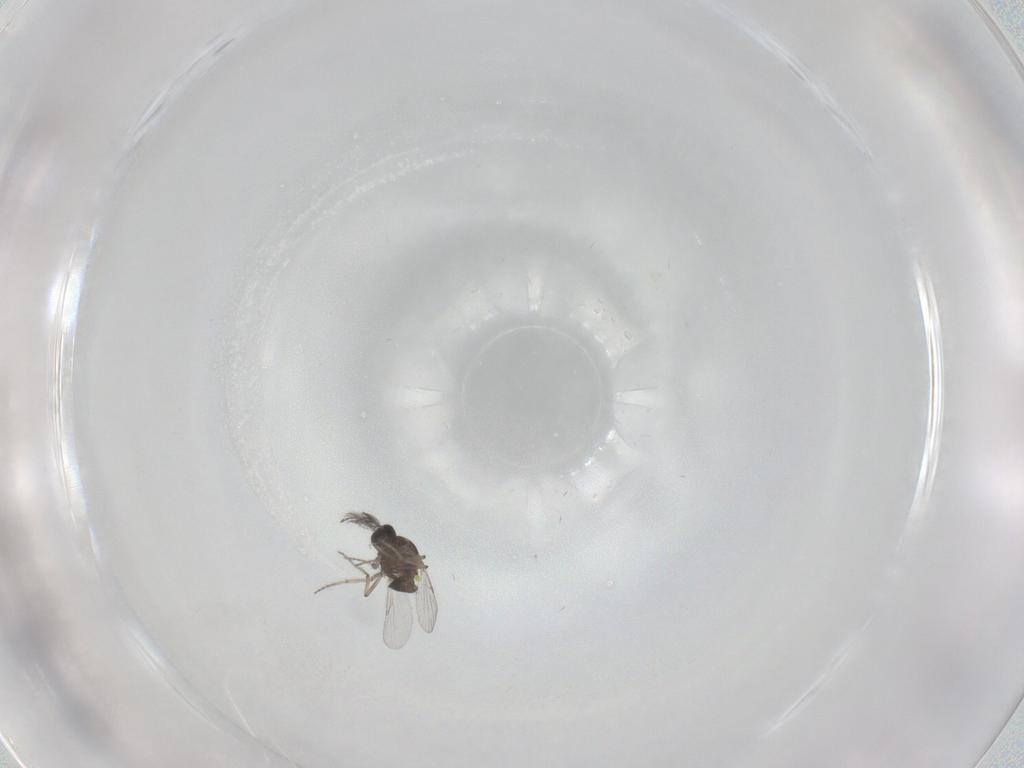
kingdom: Animalia
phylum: Arthropoda
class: Insecta
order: Diptera
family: Ceratopogonidae
